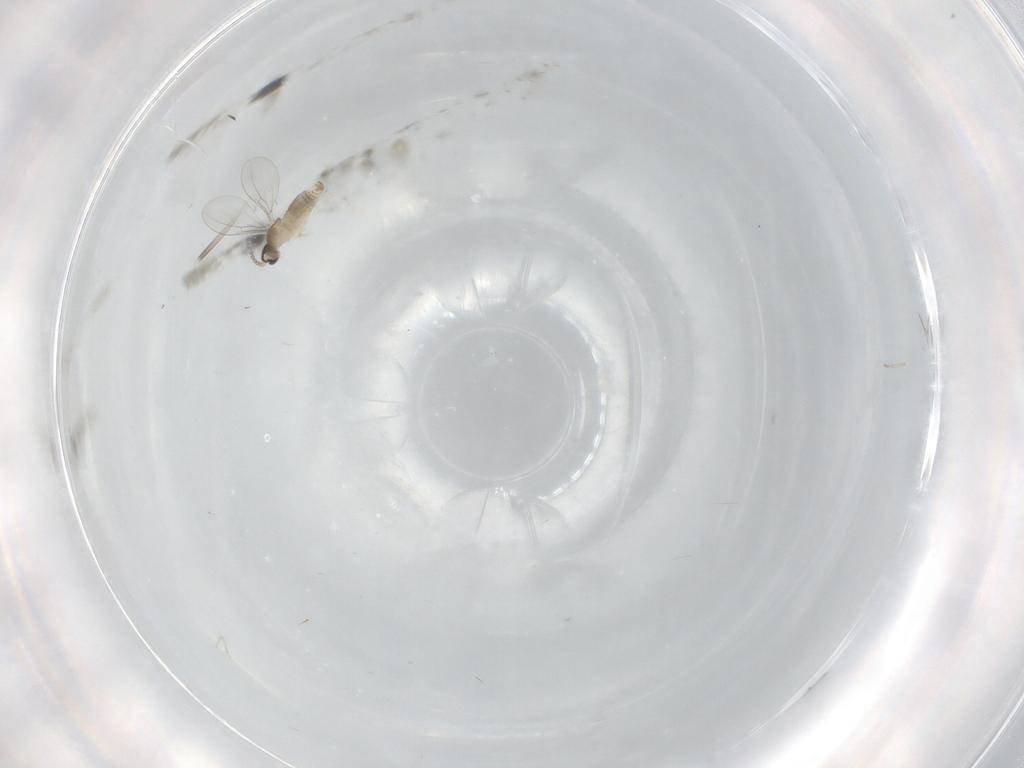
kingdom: Animalia
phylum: Arthropoda
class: Insecta
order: Diptera
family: Cecidomyiidae
